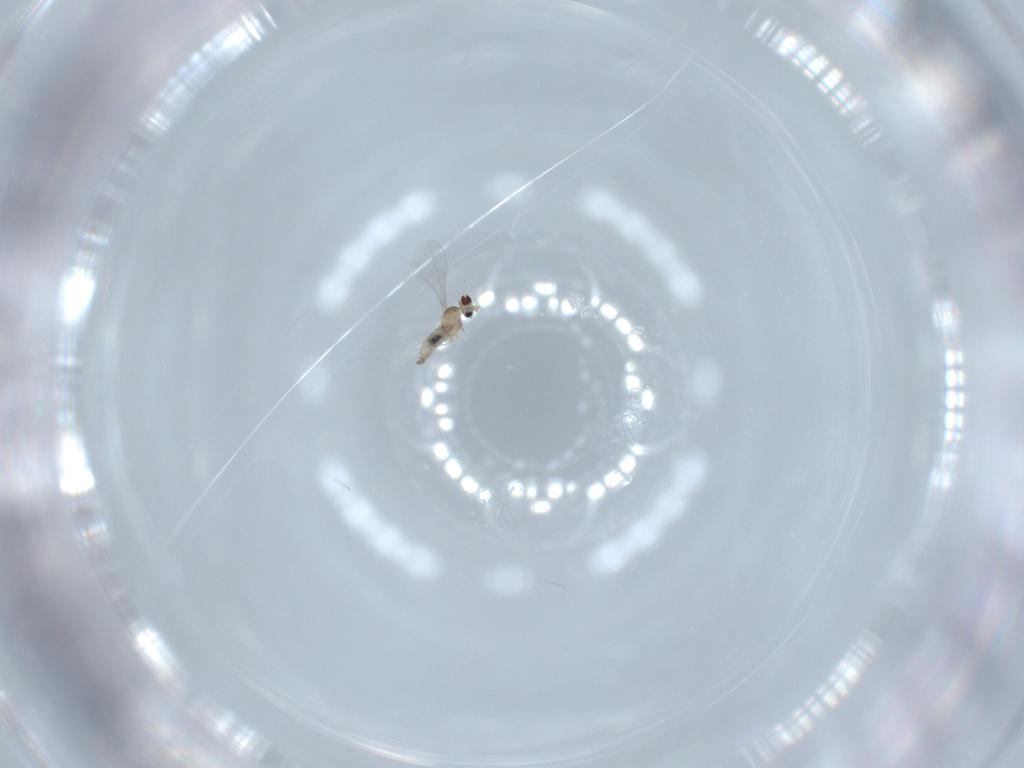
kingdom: Animalia
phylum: Arthropoda
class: Insecta
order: Diptera
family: Cecidomyiidae
